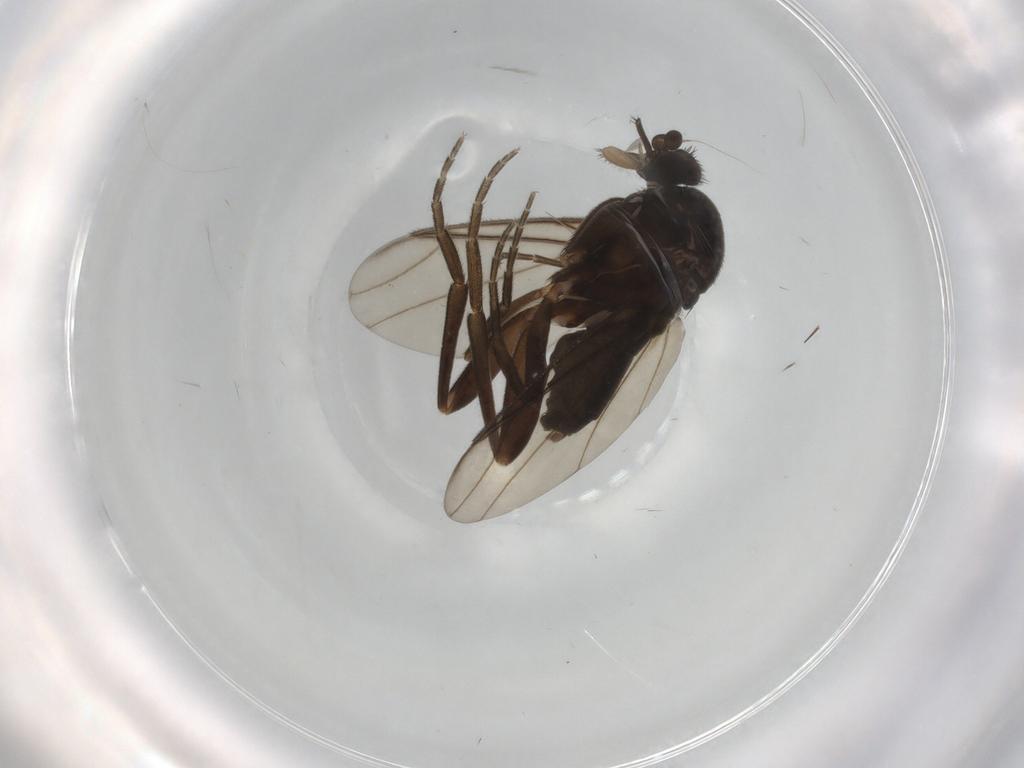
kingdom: Animalia
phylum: Arthropoda
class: Insecta
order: Diptera
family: Phoridae
